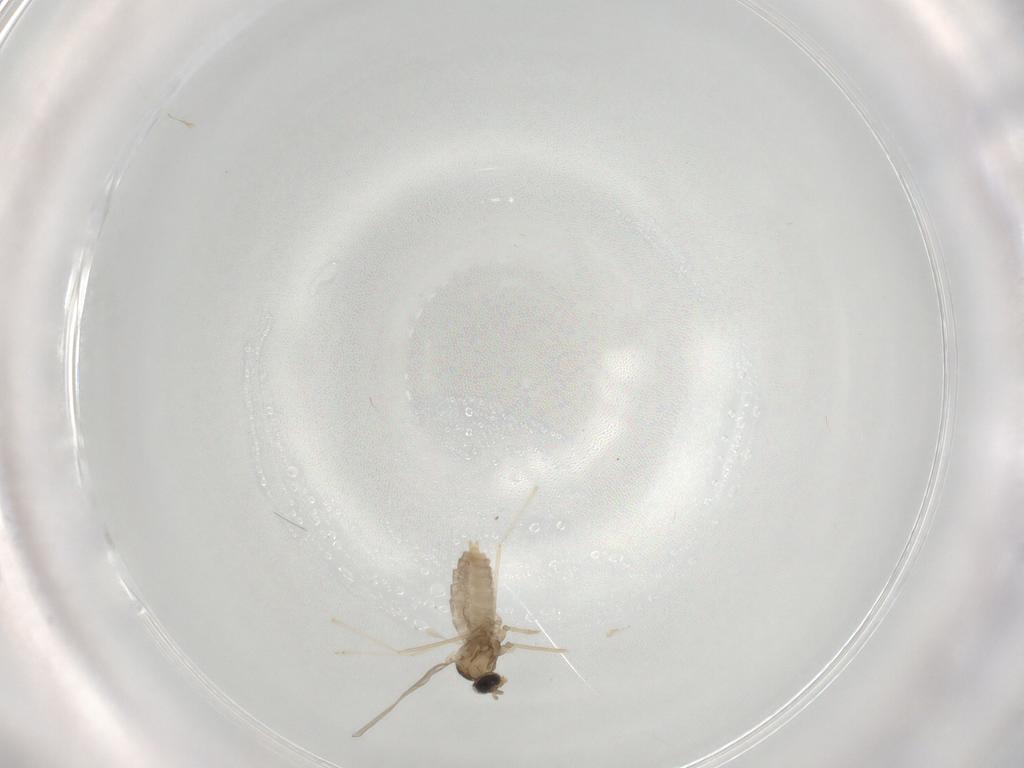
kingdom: Animalia
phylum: Arthropoda
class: Insecta
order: Diptera
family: Cecidomyiidae
